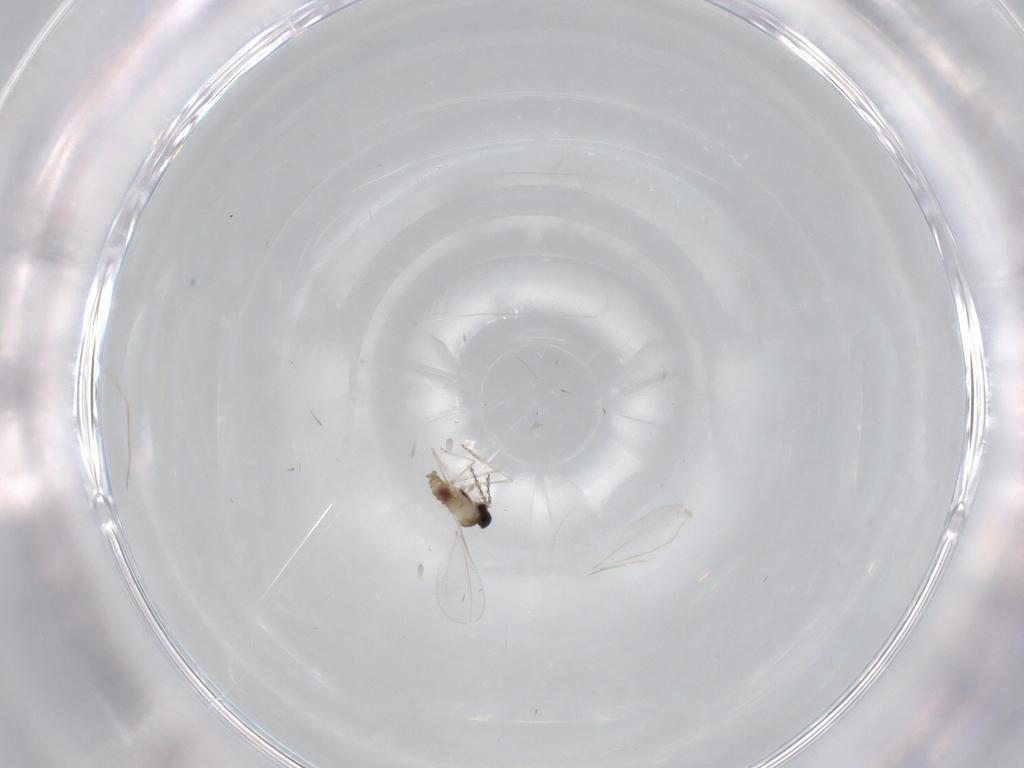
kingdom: Animalia
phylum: Arthropoda
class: Insecta
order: Diptera
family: Cecidomyiidae
